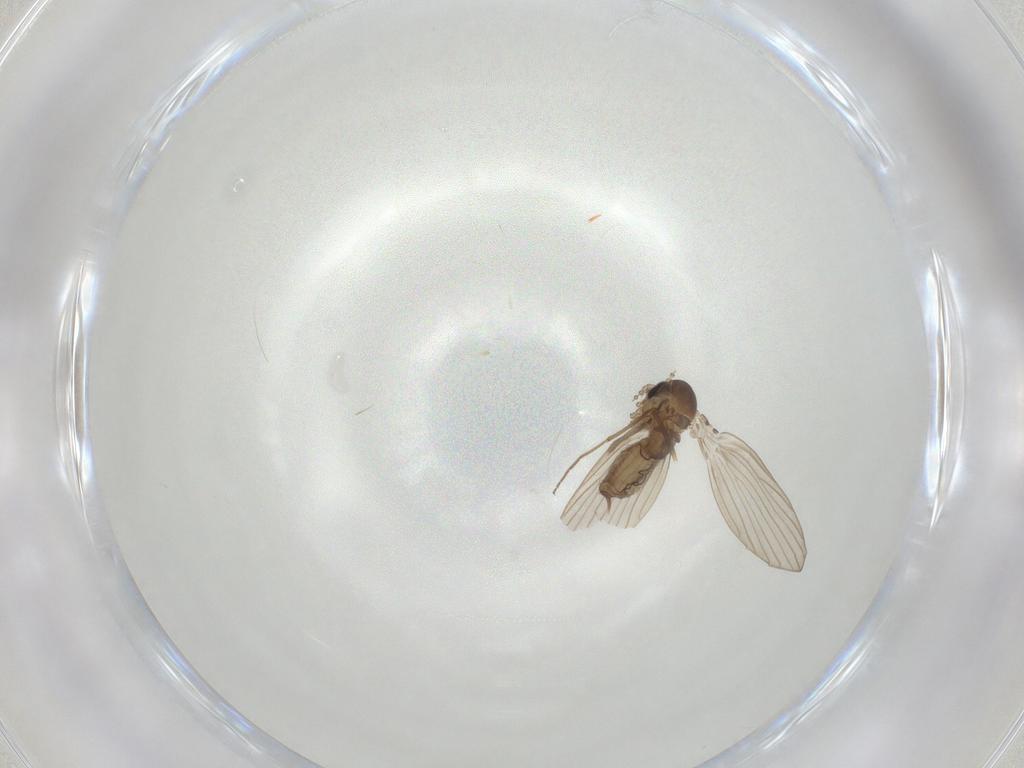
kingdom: Animalia
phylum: Arthropoda
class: Insecta
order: Diptera
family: Psychodidae
